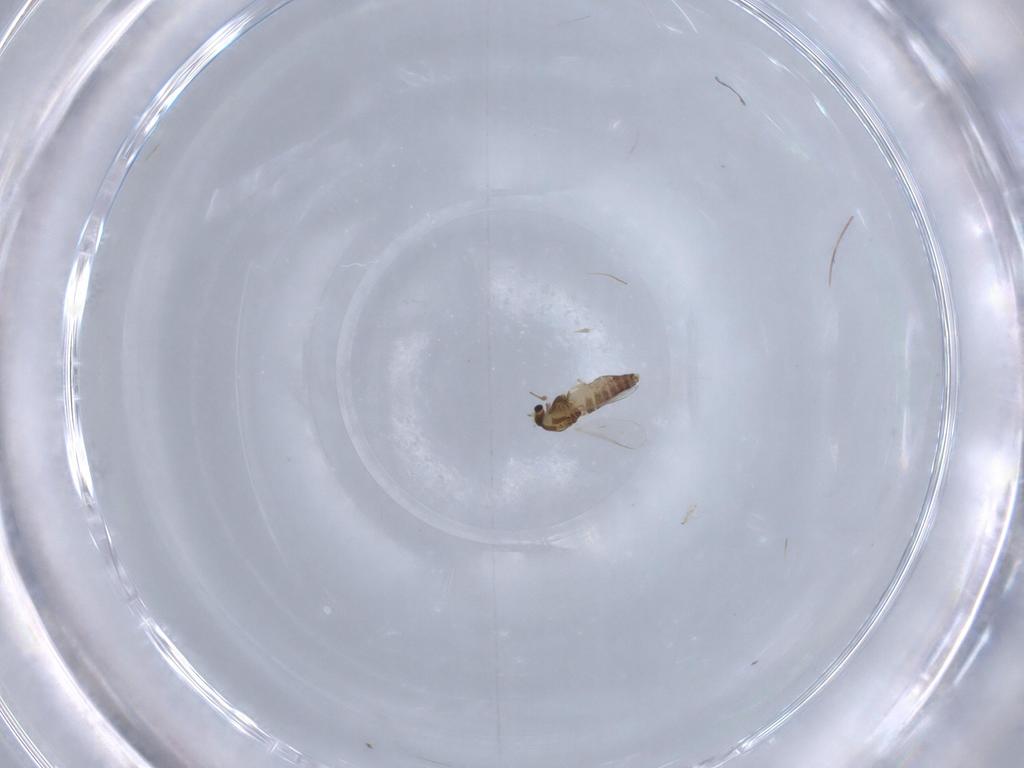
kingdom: Animalia
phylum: Arthropoda
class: Insecta
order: Diptera
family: Chironomidae
